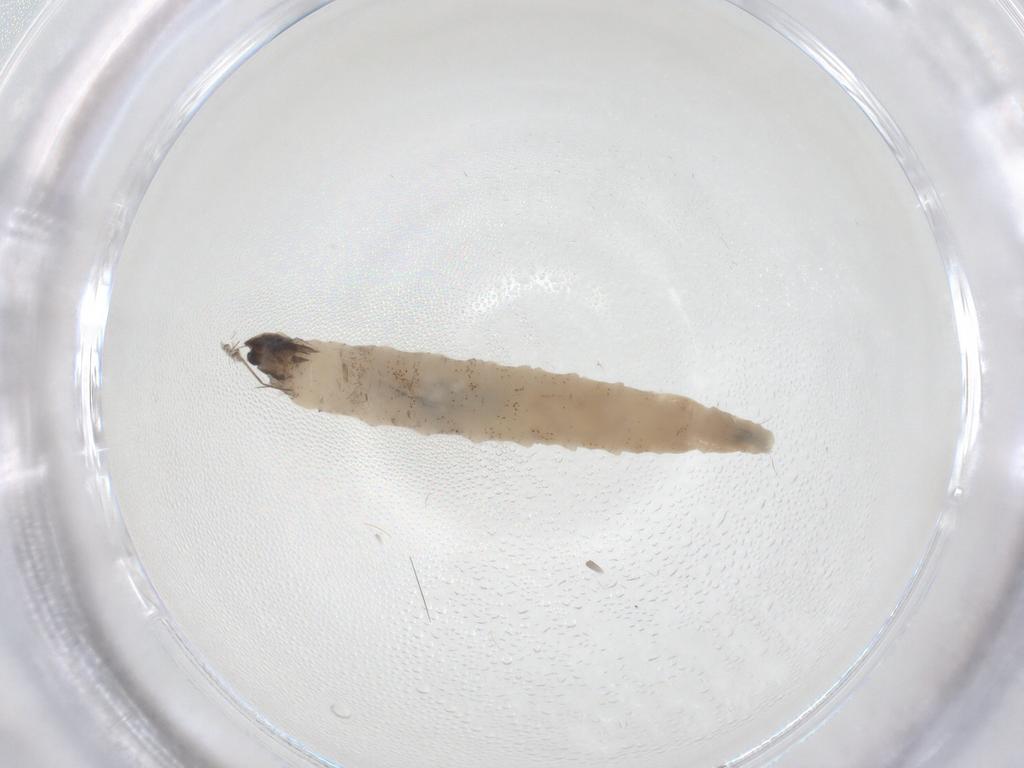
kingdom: Animalia
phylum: Arthropoda
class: Insecta
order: Diptera
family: Drosophilidae
